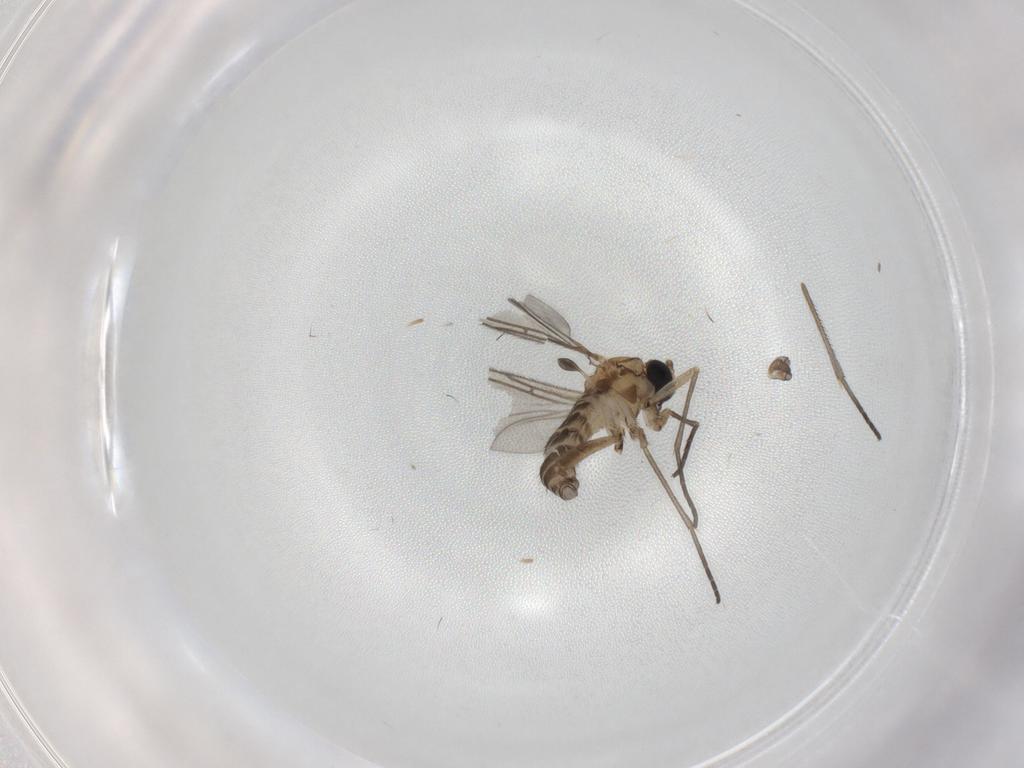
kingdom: Animalia
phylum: Arthropoda
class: Insecta
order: Diptera
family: Sciaridae
